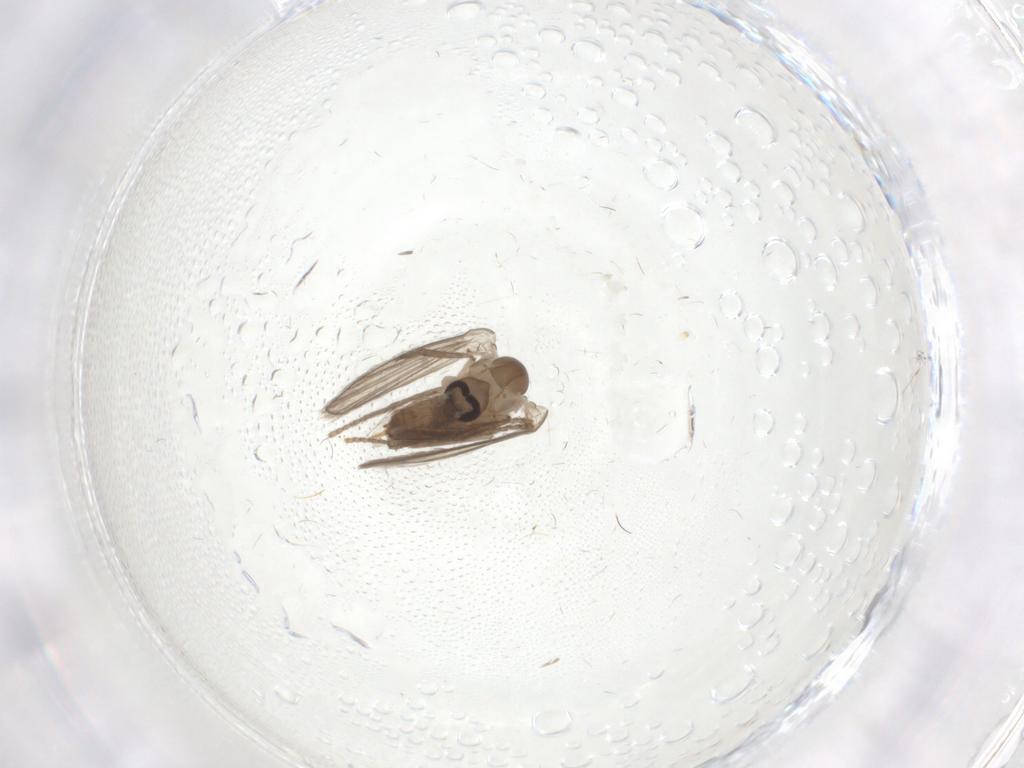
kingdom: Animalia
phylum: Arthropoda
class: Insecta
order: Diptera
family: Psychodidae
